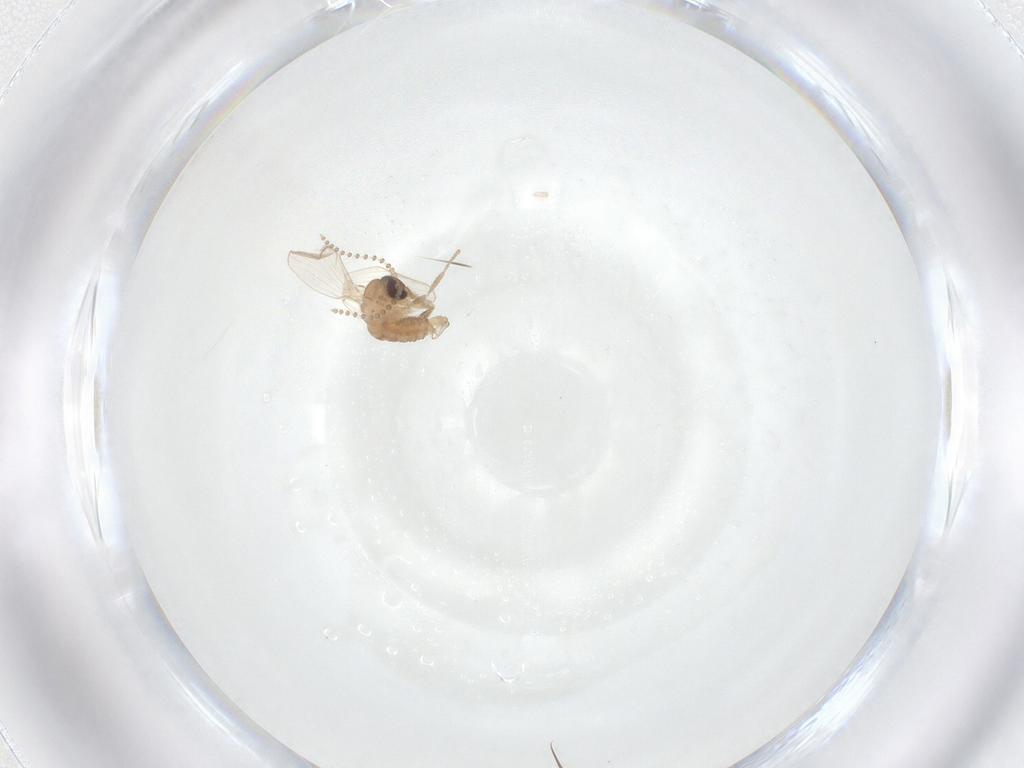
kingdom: Animalia
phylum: Arthropoda
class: Insecta
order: Diptera
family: Psychodidae
